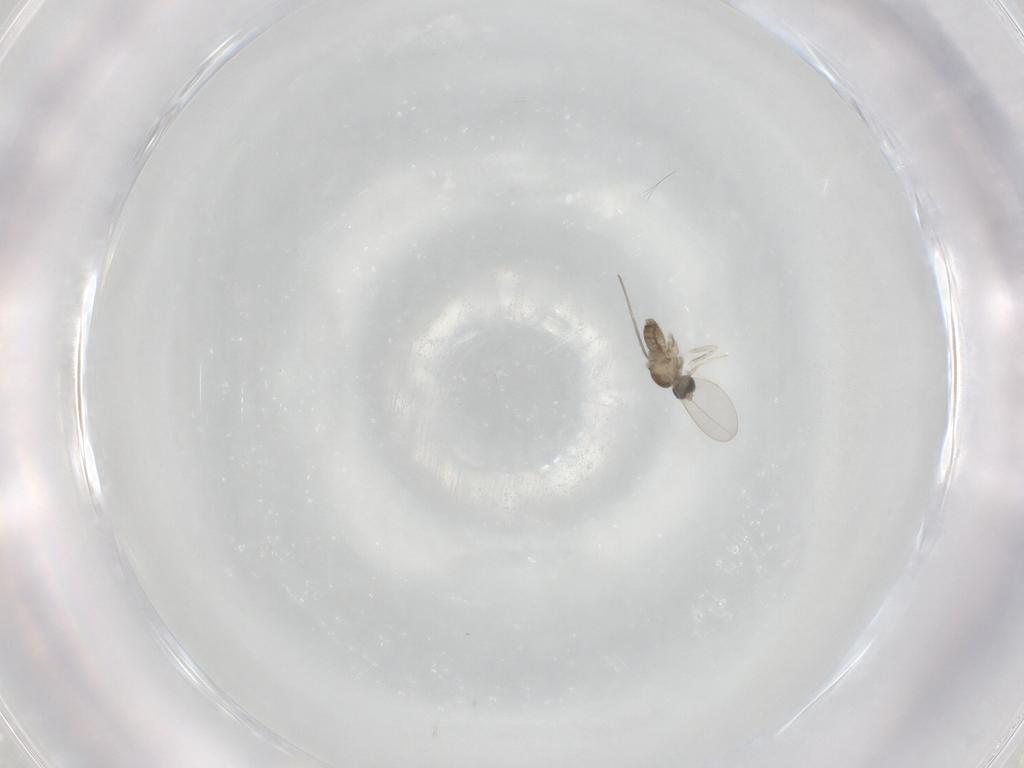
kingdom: Animalia
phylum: Arthropoda
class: Insecta
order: Diptera
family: Cecidomyiidae
